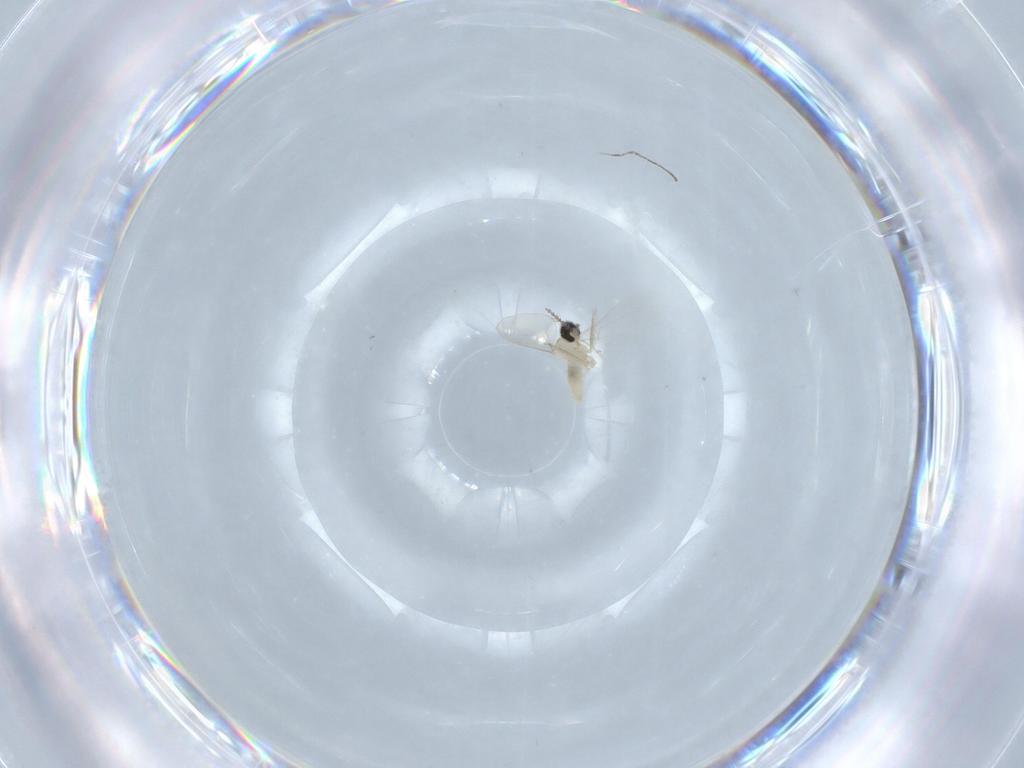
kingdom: Animalia
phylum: Arthropoda
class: Insecta
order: Diptera
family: Cecidomyiidae
